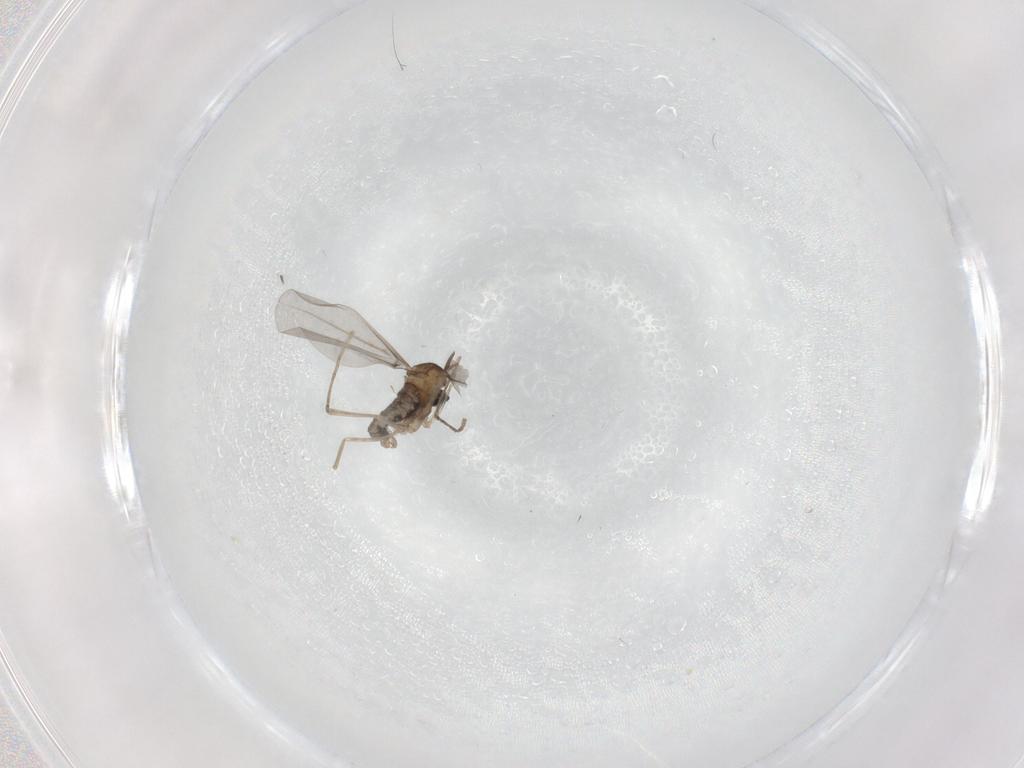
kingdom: Animalia
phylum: Arthropoda
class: Insecta
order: Diptera
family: Cecidomyiidae
